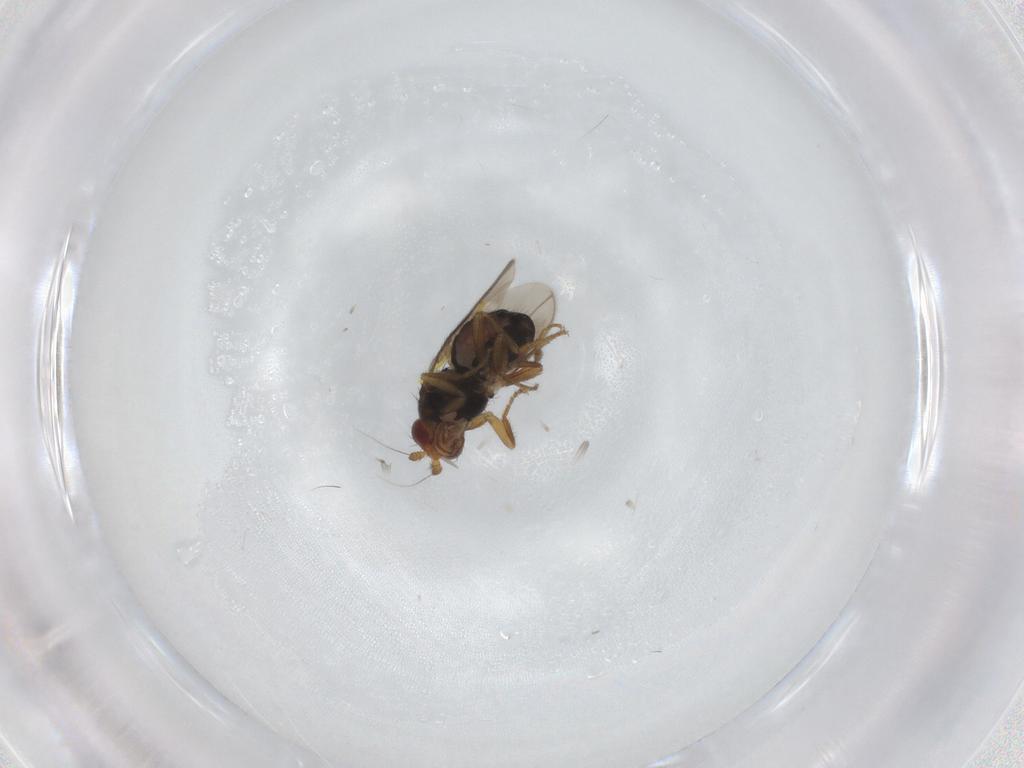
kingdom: Animalia
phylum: Arthropoda
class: Insecta
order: Diptera
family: Sphaeroceridae
